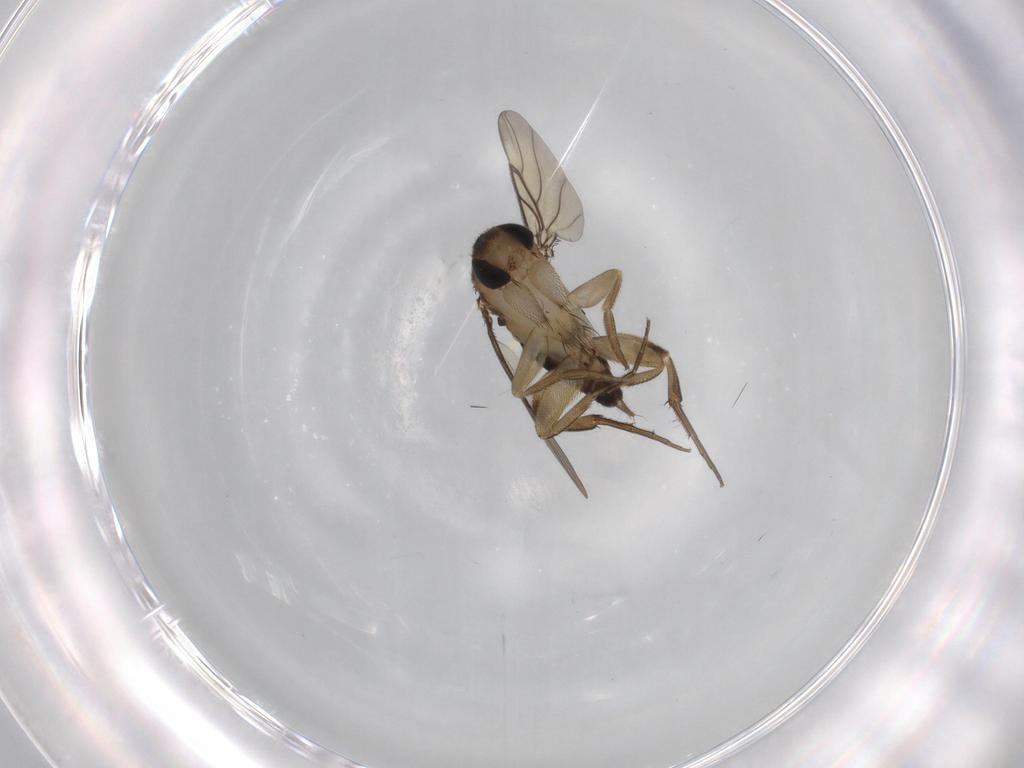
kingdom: Animalia
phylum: Arthropoda
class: Insecta
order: Diptera
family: Phoridae
